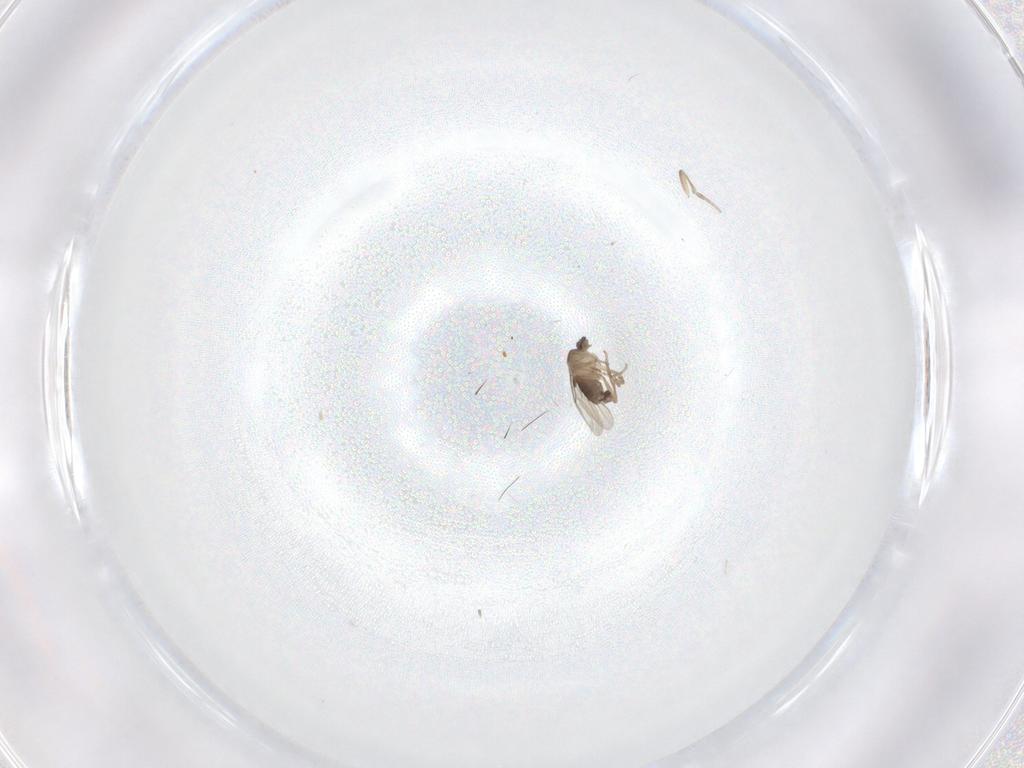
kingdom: Animalia
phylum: Arthropoda
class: Insecta
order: Diptera
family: Phoridae
